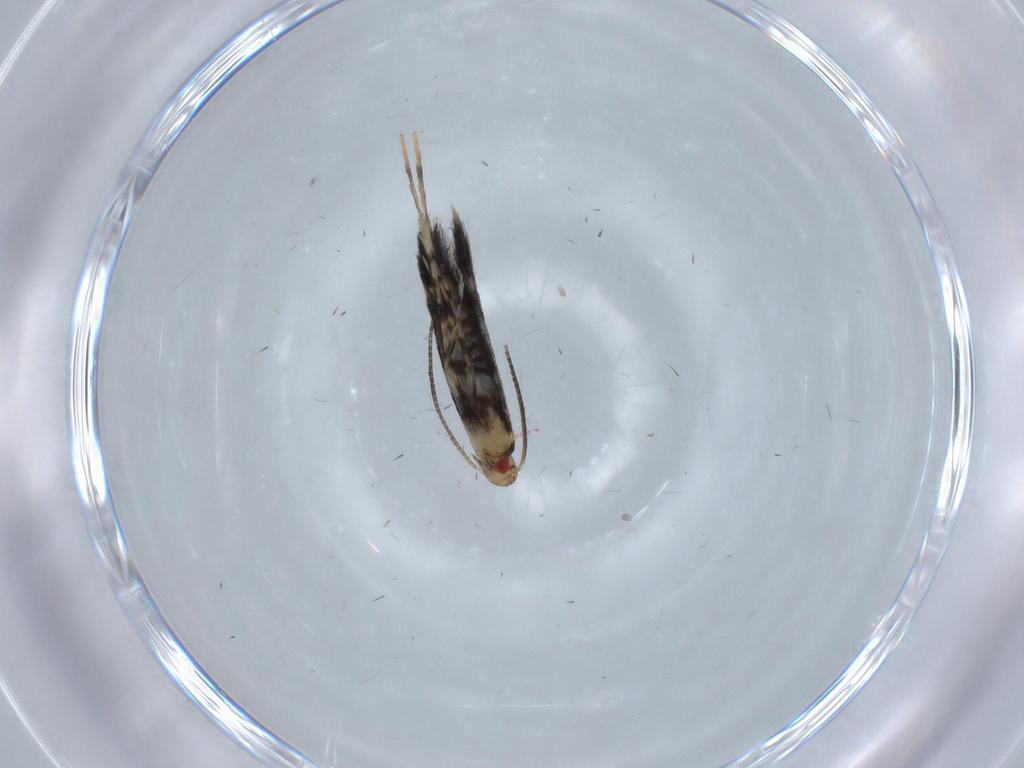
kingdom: Animalia
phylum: Arthropoda
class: Insecta
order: Lepidoptera
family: Gracillariidae
